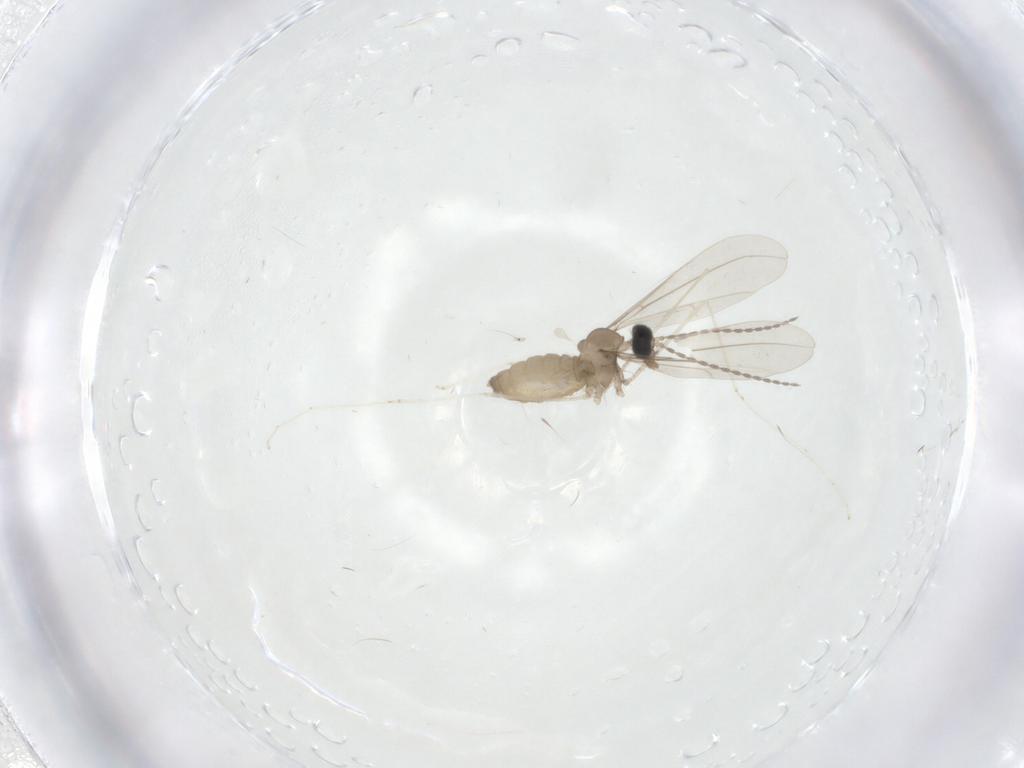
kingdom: Animalia
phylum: Arthropoda
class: Insecta
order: Diptera
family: Cecidomyiidae
